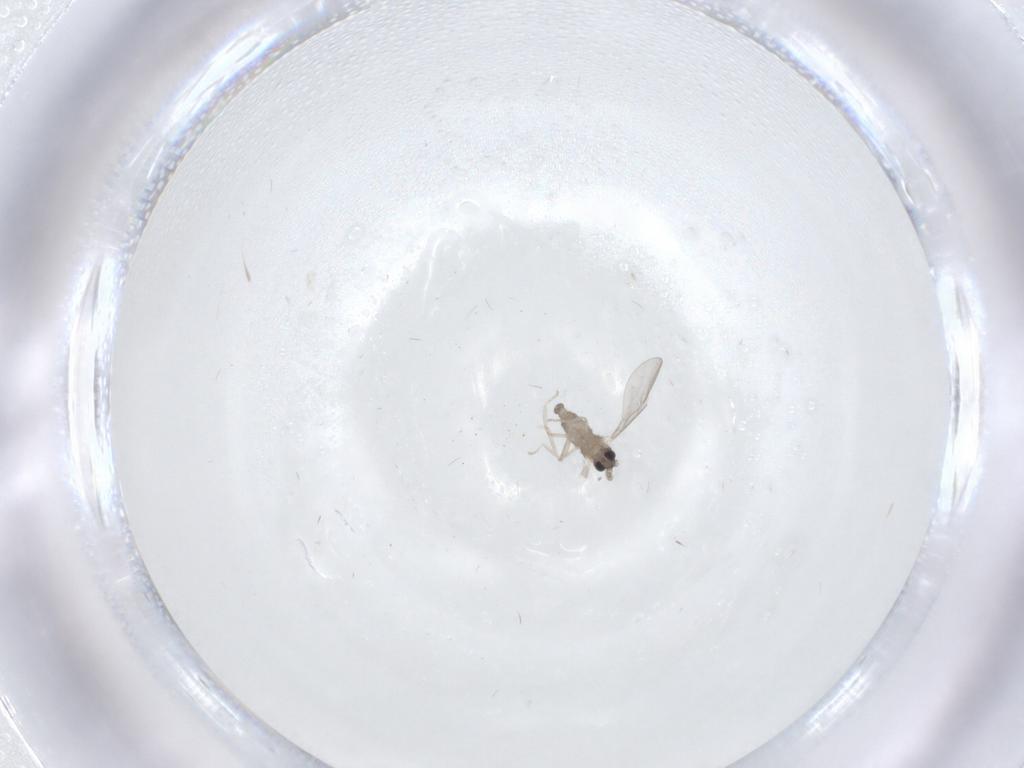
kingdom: Animalia
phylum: Arthropoda
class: Insecta
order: Diptera
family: Cecidomyiidae
